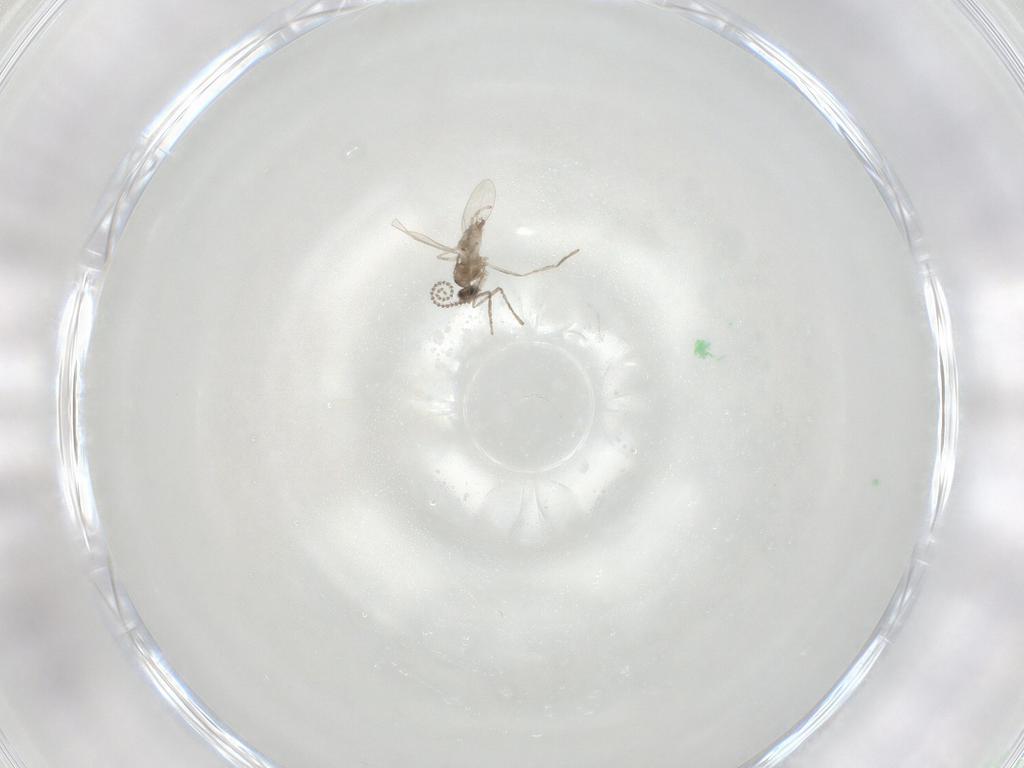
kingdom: Animalia
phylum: Arthropoda
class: Insecta
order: Diptera
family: Cecidomyiidae
